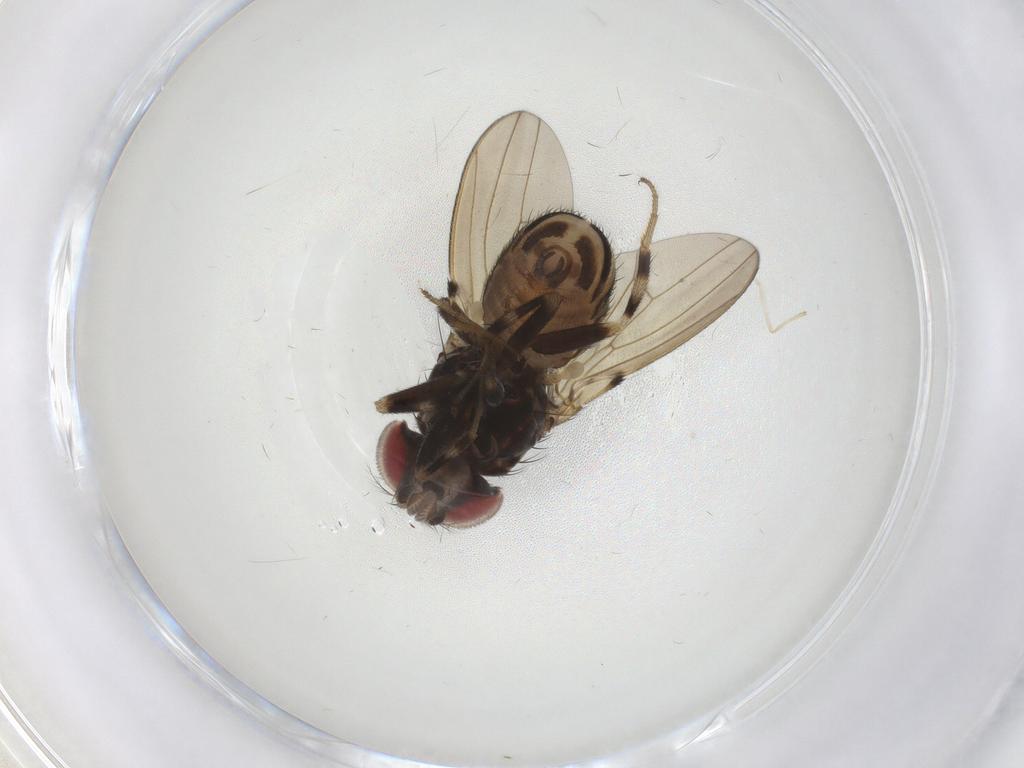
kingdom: Animalia
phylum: Arthropoda
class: Insecta
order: Diptera
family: Drosophilidae
